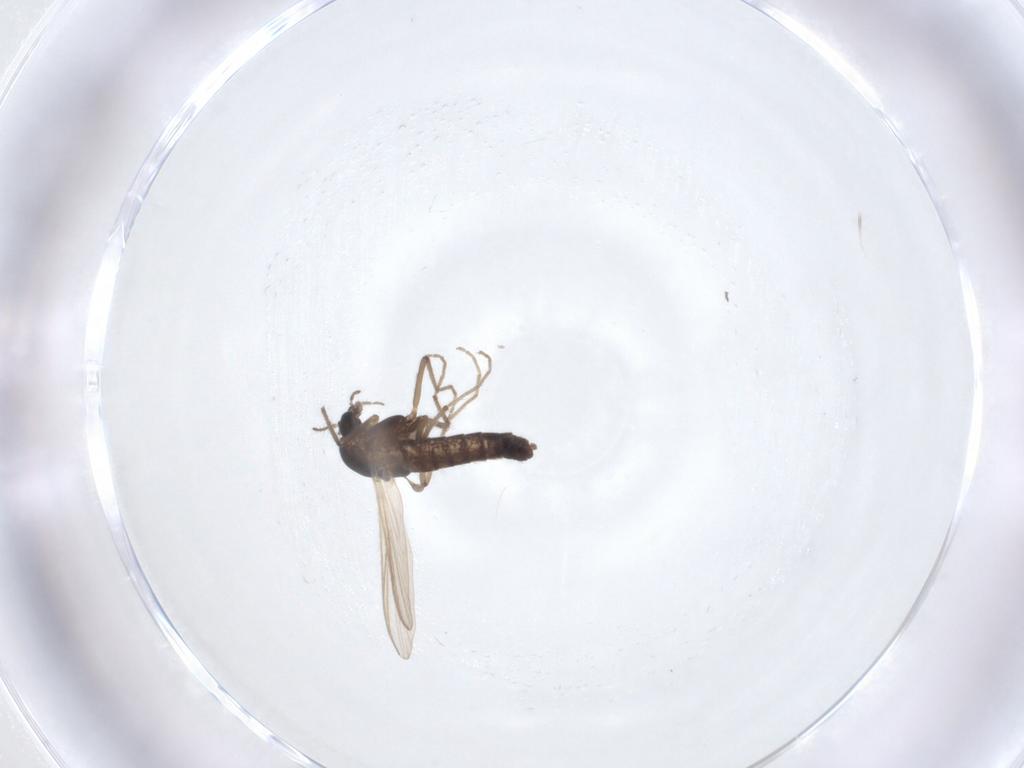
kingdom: Animalia
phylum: Arthropoda
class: Insecta
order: Diptera
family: Chironomidae
